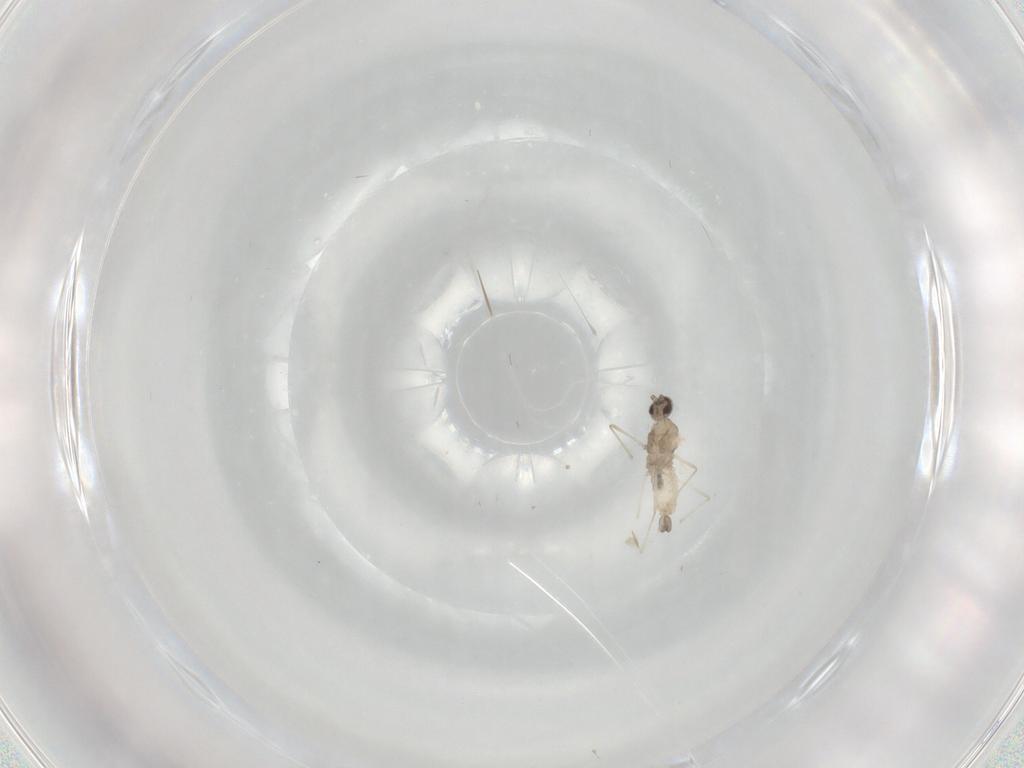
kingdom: Animalia
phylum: Arthropoda
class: Insecta
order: Diptera
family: Cecidomyiidae
